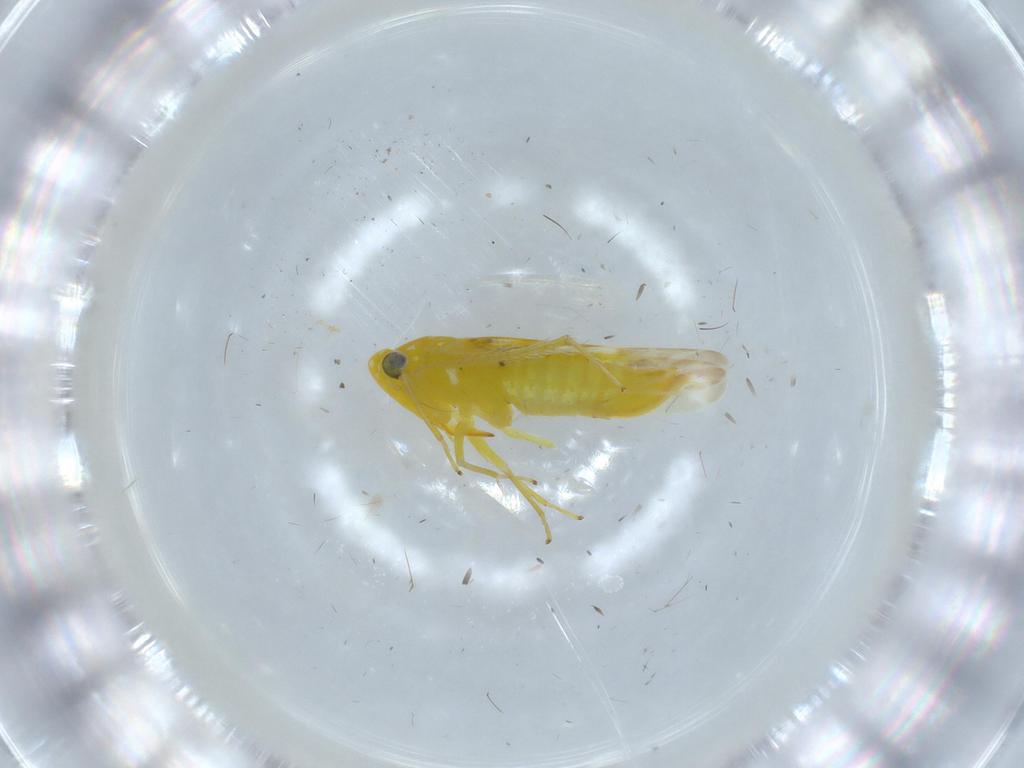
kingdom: Animalia
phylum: Arthropoda
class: Insecta
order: Hemiptera
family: Cicadellidae
